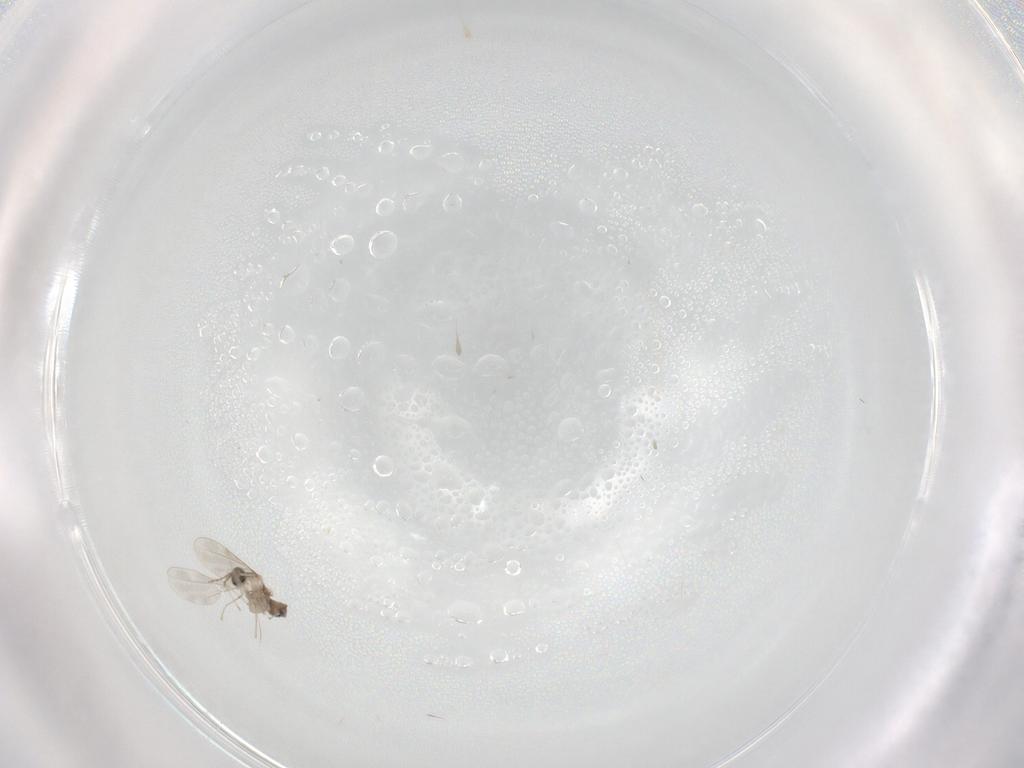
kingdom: Animalia
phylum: Arthropoda
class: Insecta
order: Diptera
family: Cecidomyiidae
